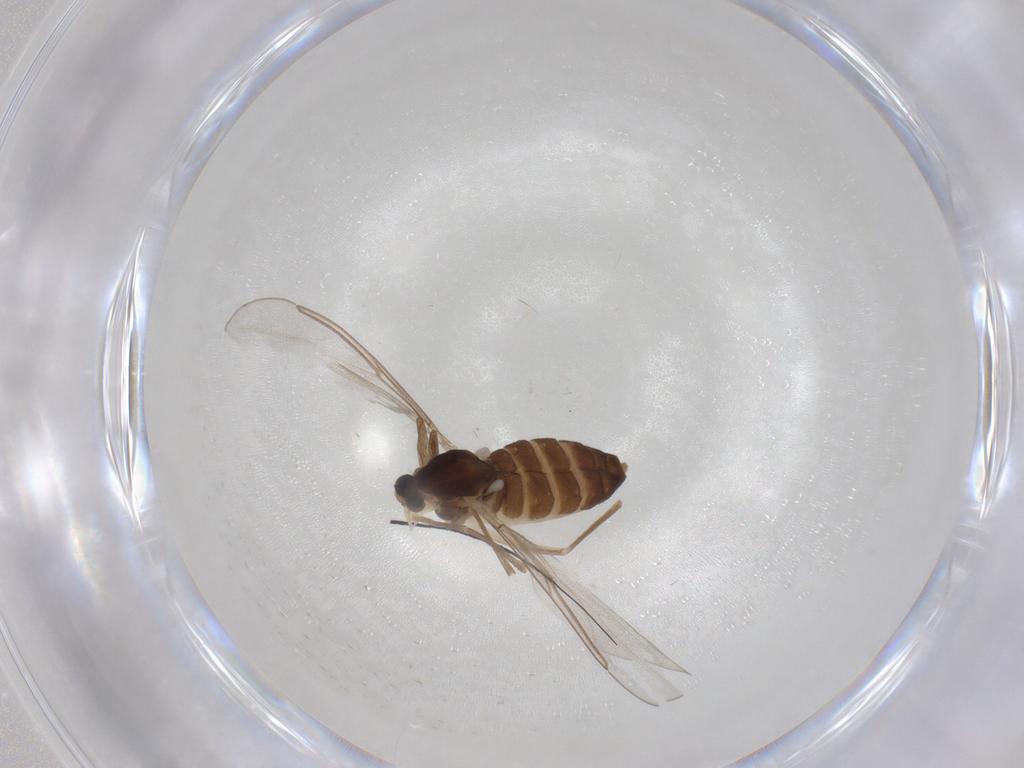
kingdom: Animalia
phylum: Arthropoda
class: Insecta
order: Diptera
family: Cecidomyiidae
